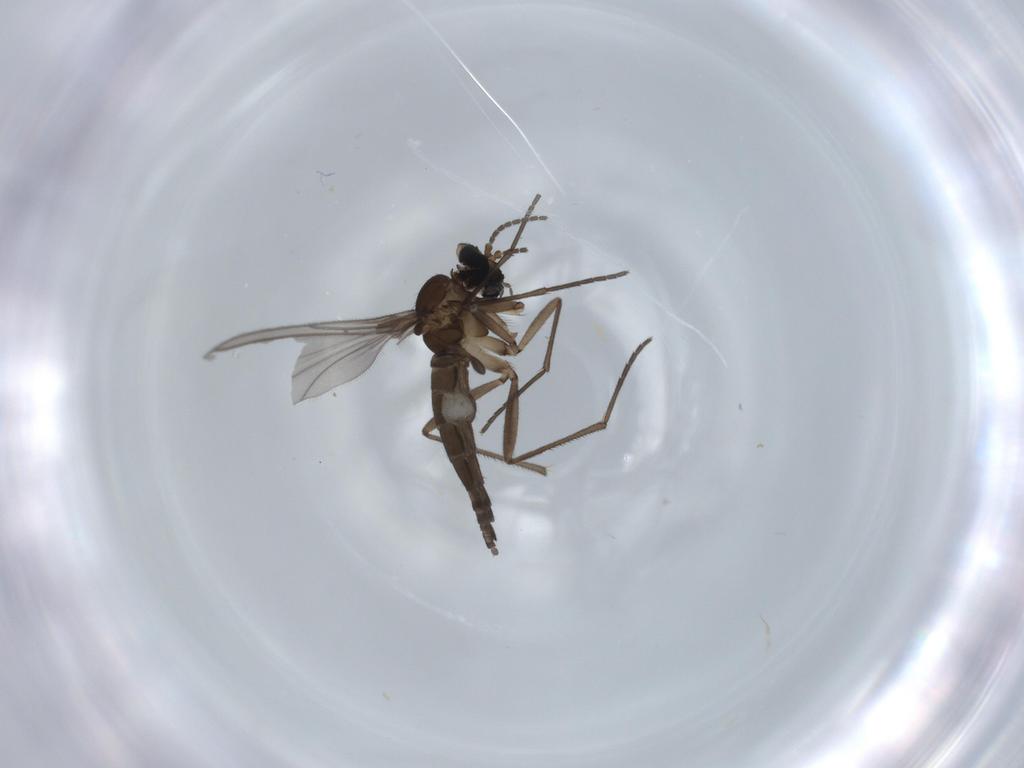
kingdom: Animalia
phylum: Arthropoda
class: Insecta
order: Diptera
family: Sciaridae
